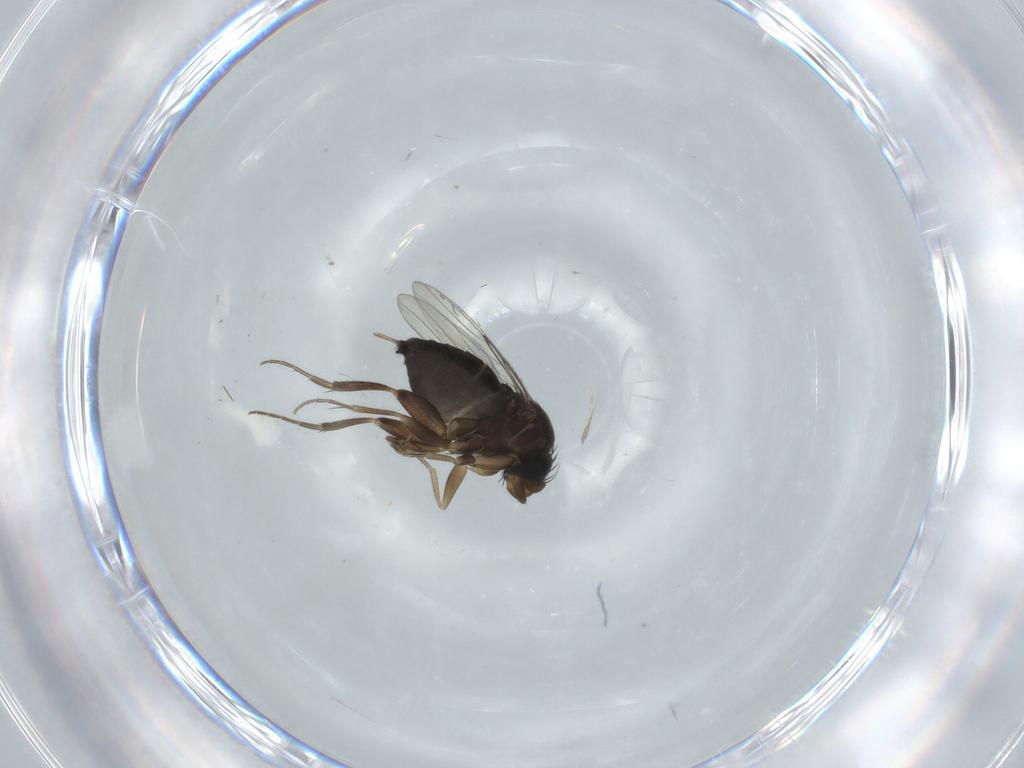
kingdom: Animalia
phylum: Arthropoda
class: Insecta
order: Diptera
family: Phoridae
